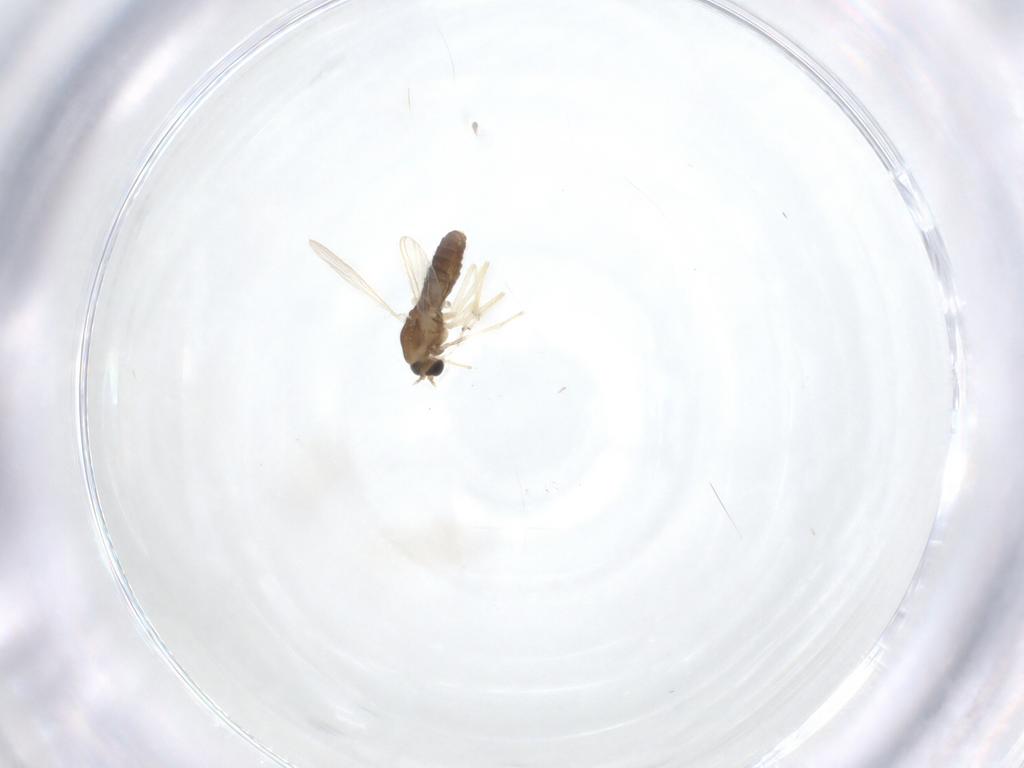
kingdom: Animalia
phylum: Arthropoda
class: Insecta
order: Diptera
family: Chironomidae
